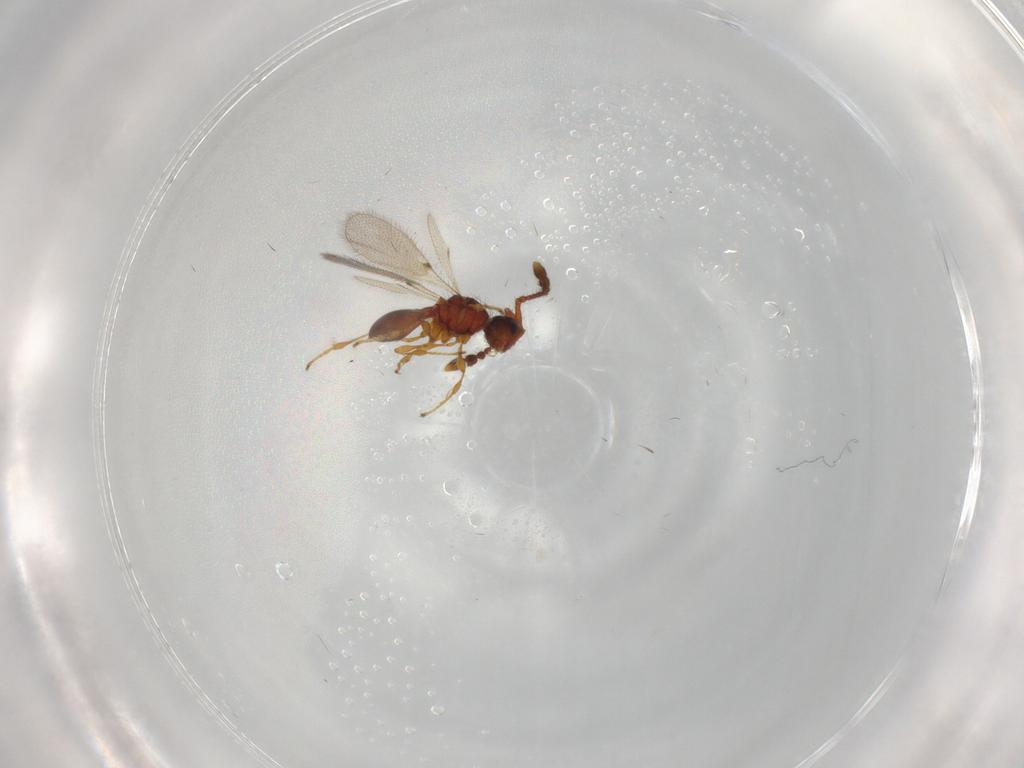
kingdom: Animalia
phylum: Arthropoda
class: Insecta
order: Hymenoptera
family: Diapriidae
